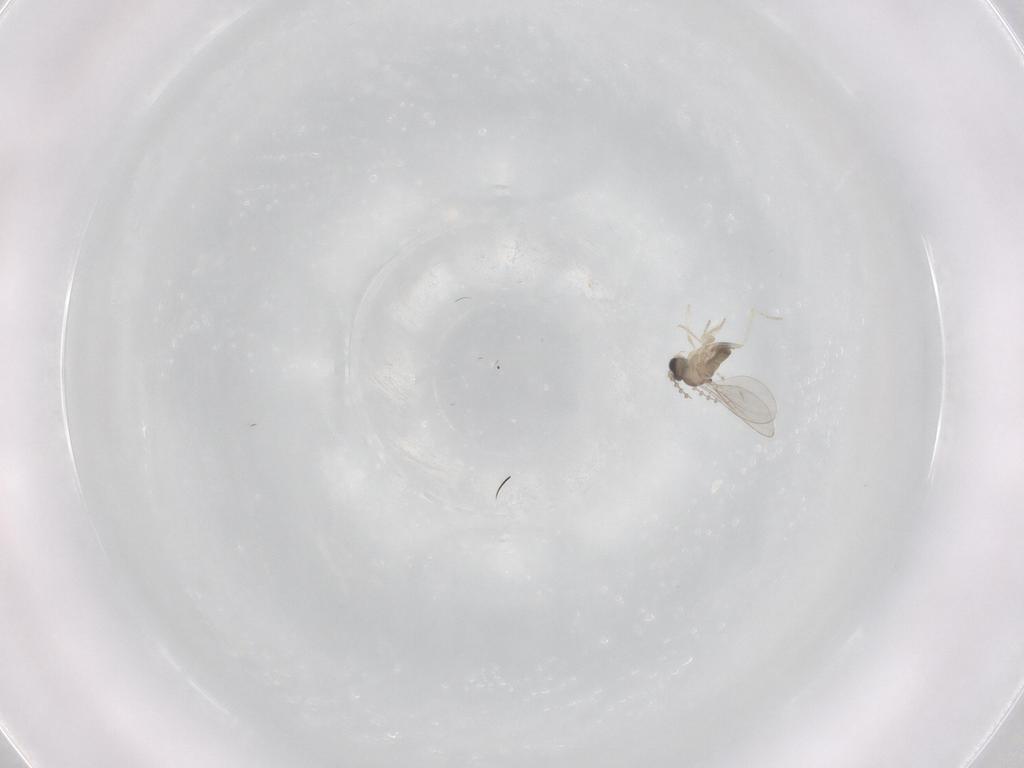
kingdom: Animalia
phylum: Arthropoda
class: Insecta
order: Diptera
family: Cecidomyiidae
